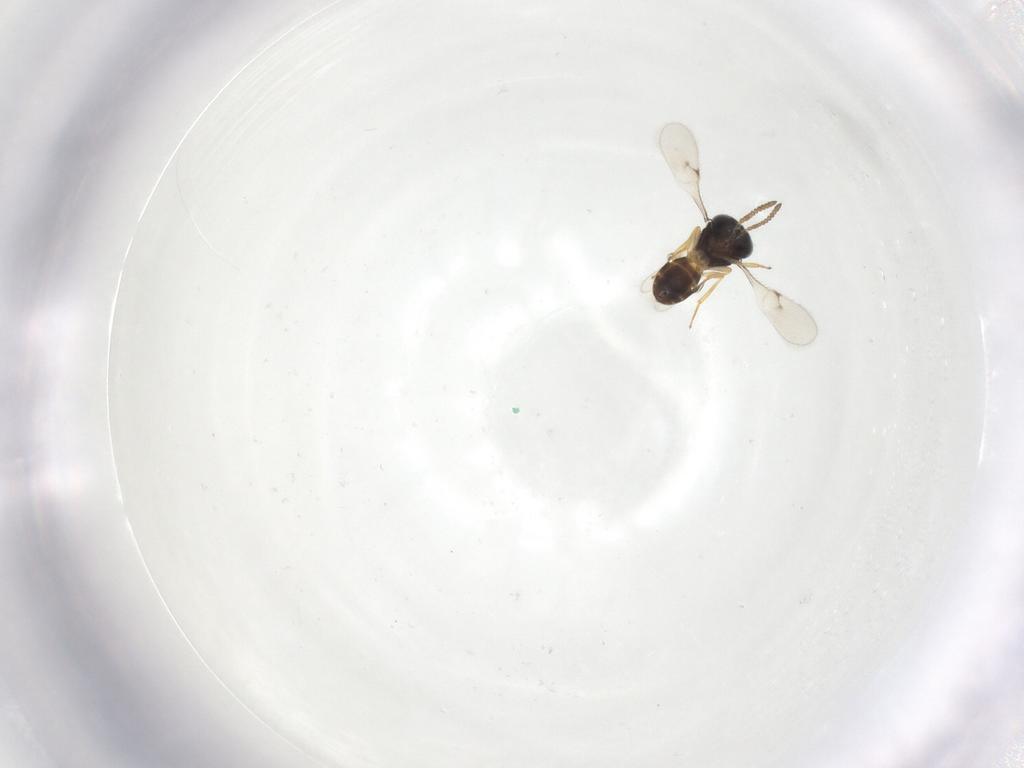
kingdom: Animalia
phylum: Arthropoda
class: Insecta
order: Hymenoptera
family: Scelionidae
